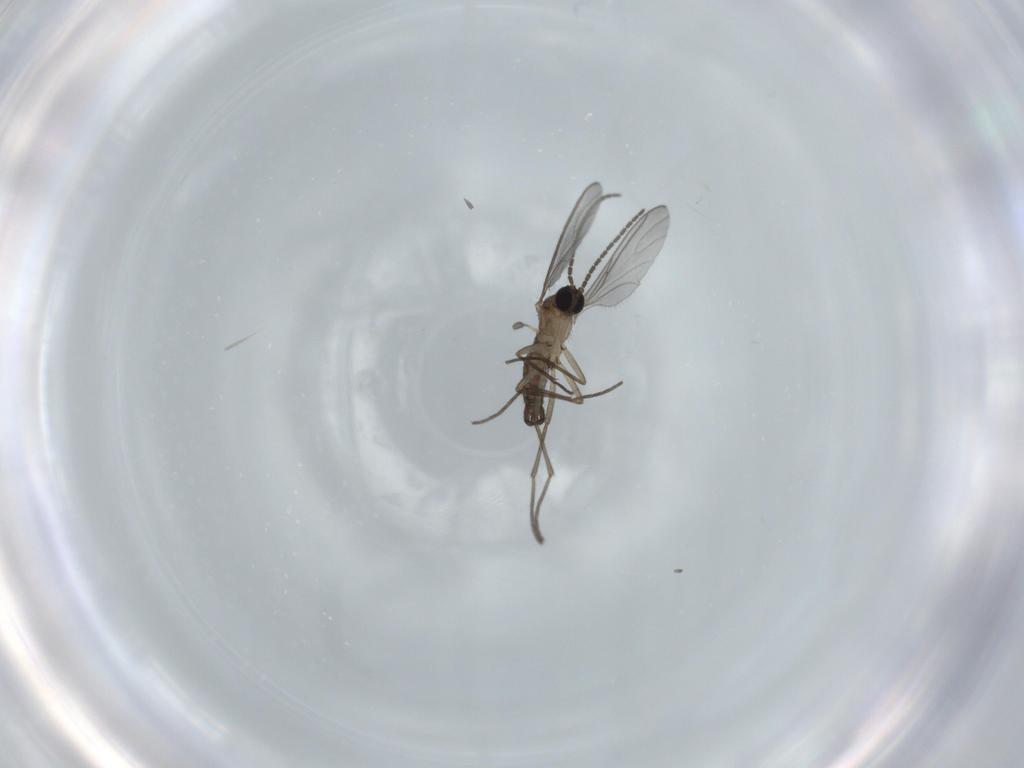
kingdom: Animalia
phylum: Arthropoda
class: Insecta
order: Diptera
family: Sciaridae
